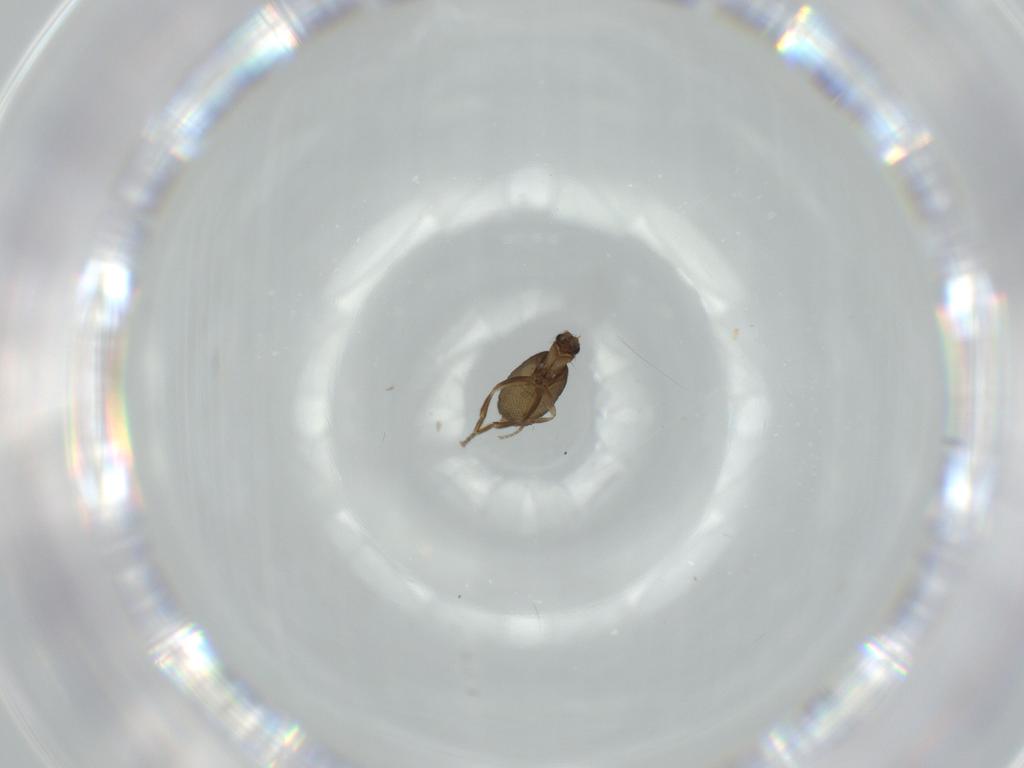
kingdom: Animalia
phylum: Arthropoda
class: Insecta
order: Diptera
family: Phoridae
